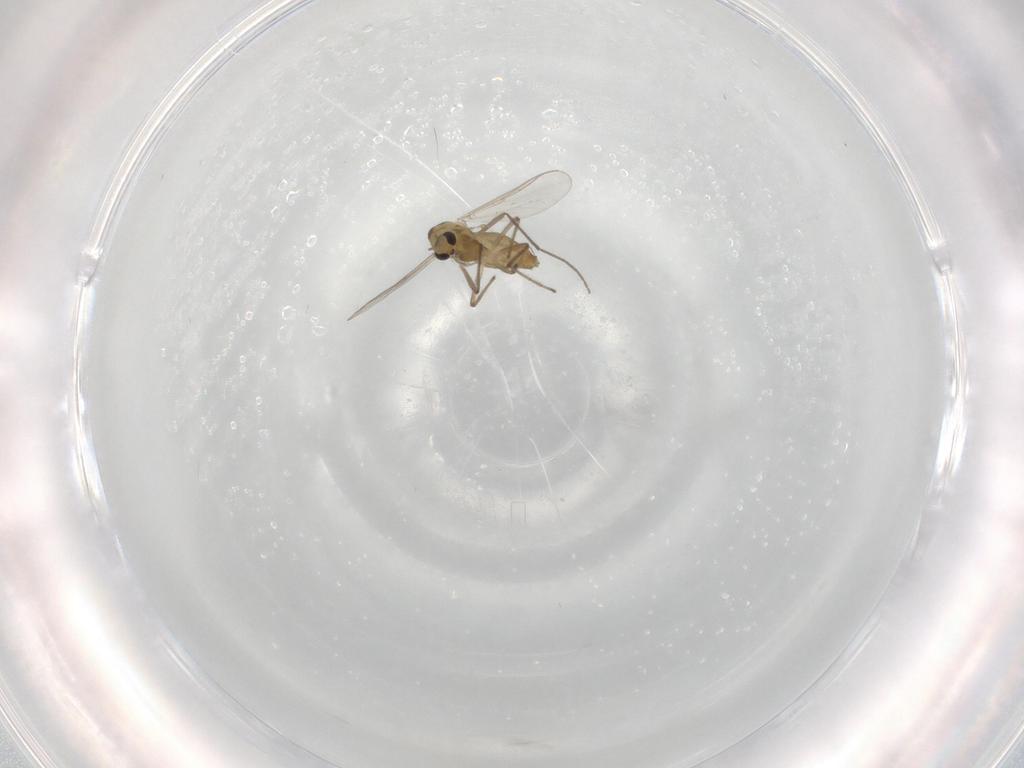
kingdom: Animalia
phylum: Arthropoda
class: Insecta
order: Diptera
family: Chironomidae
